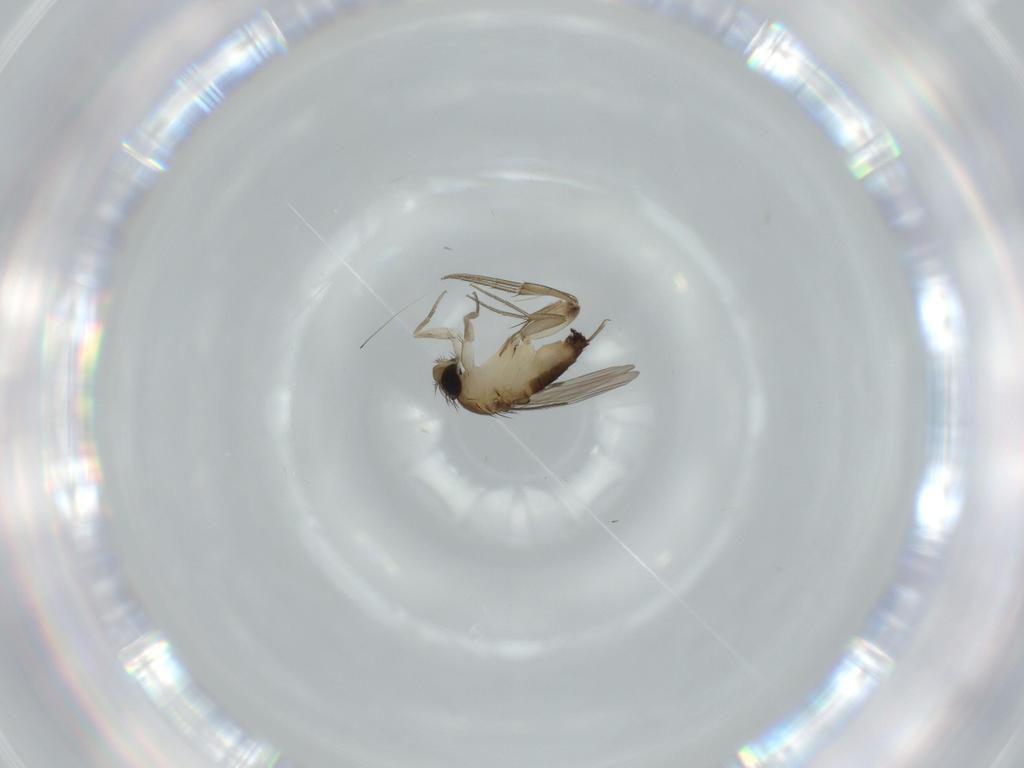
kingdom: Animalia
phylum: Arthropoda
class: Insecta
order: Diptera
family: Phoridae
